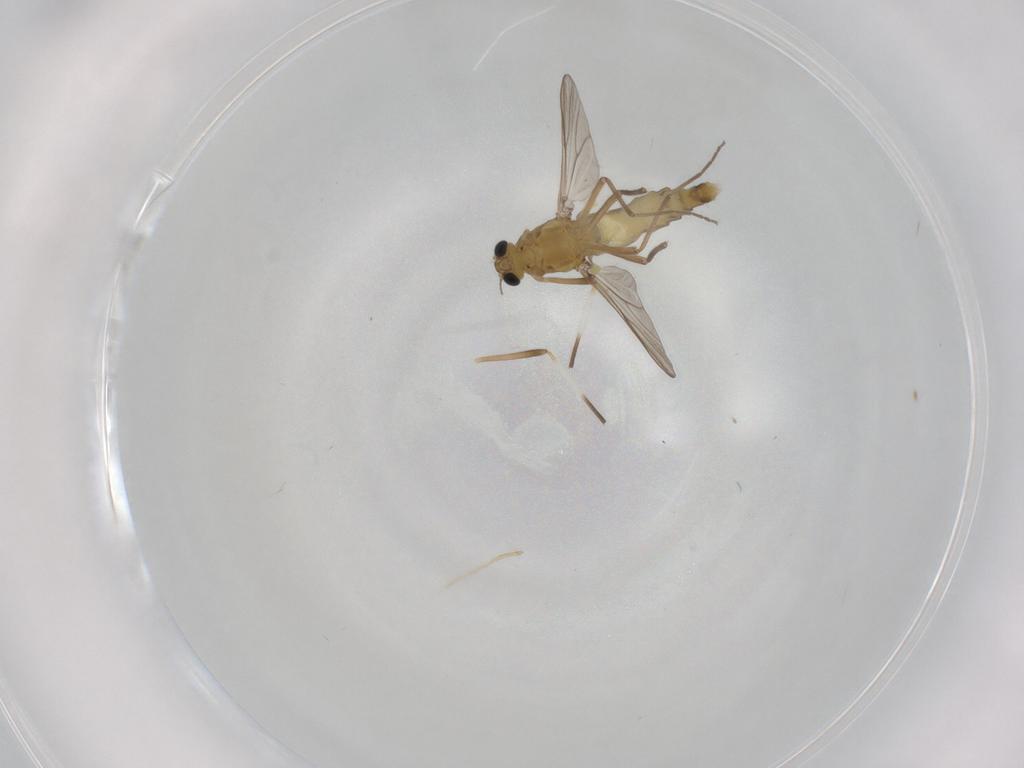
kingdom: Animalia
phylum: Arthropoda
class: Insecta
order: Diptera
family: Phoridae
